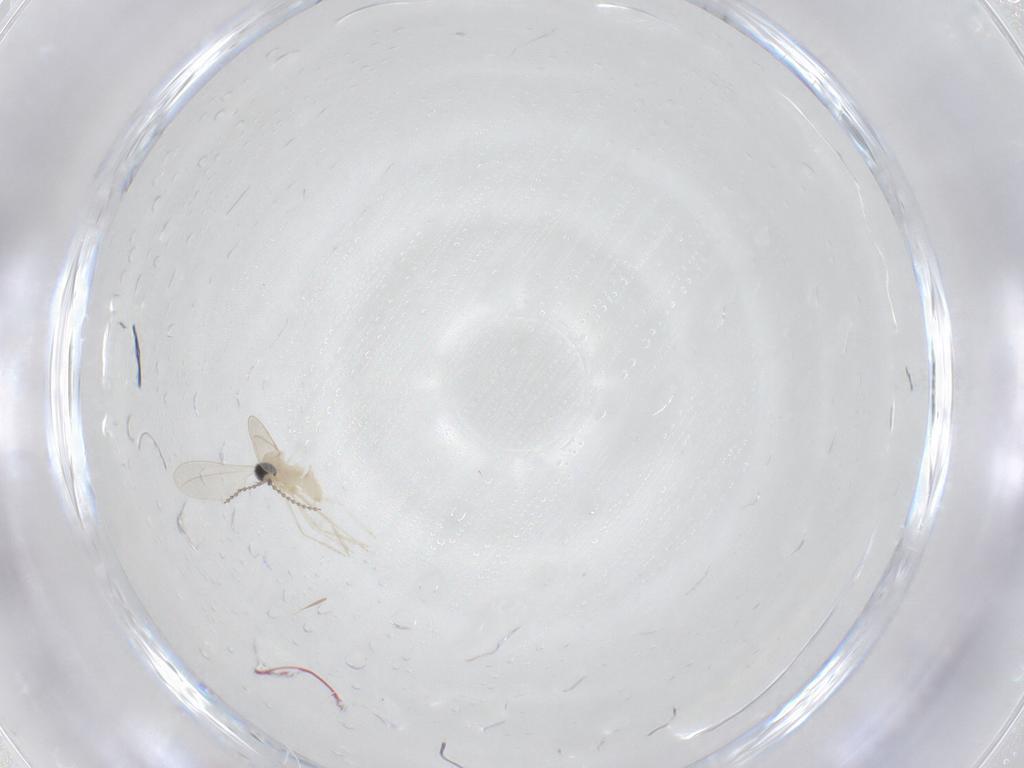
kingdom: Animalia
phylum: Arthropoda
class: Insecta
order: Diptera
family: Cecidomyiidae
